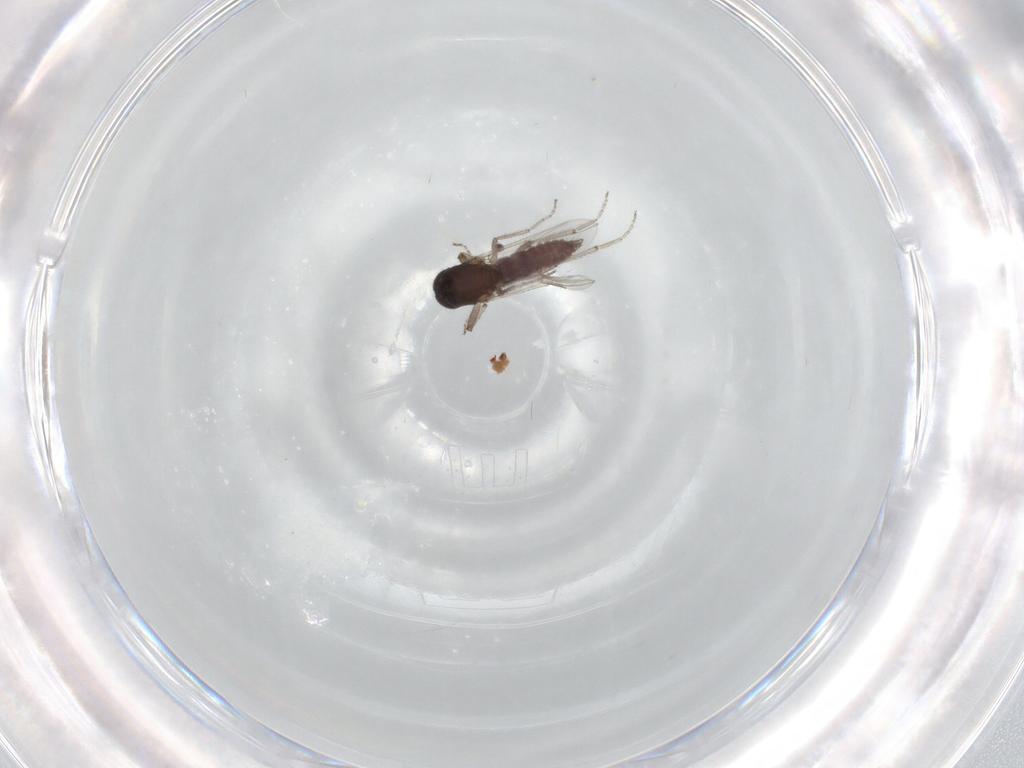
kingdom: Animalia
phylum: Arthropoda
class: Insecta
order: Diptera
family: Ceratopogonidae
